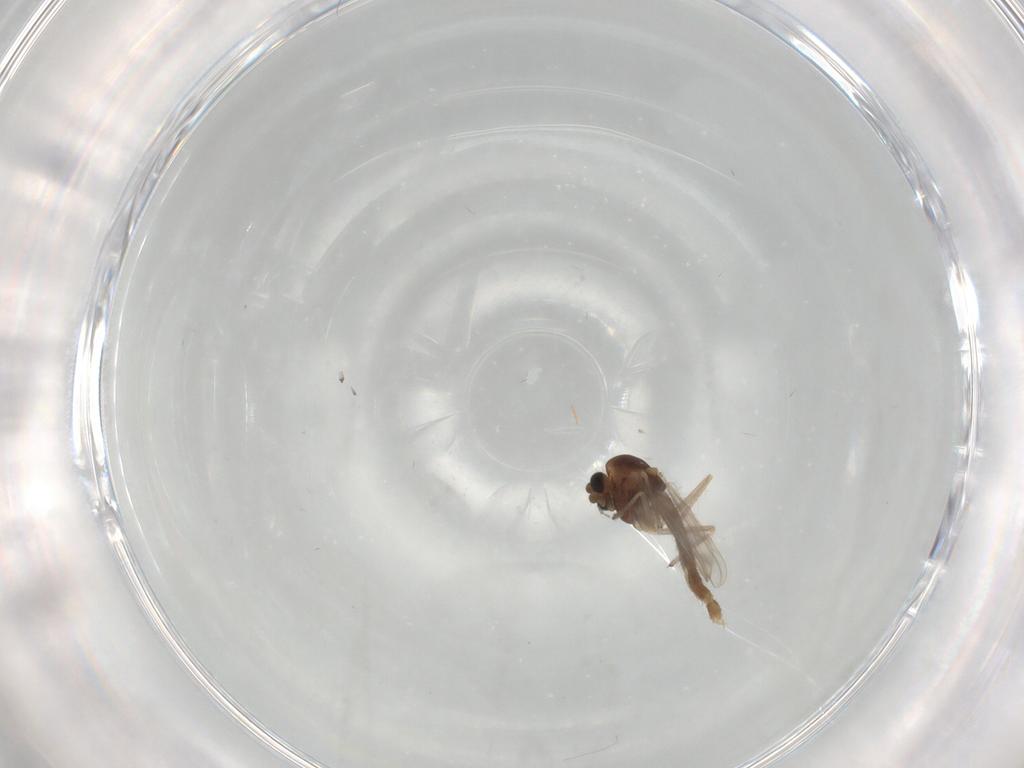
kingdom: Animalia
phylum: Arthropoda
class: Insecta
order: Diptera
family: Chironomidae
